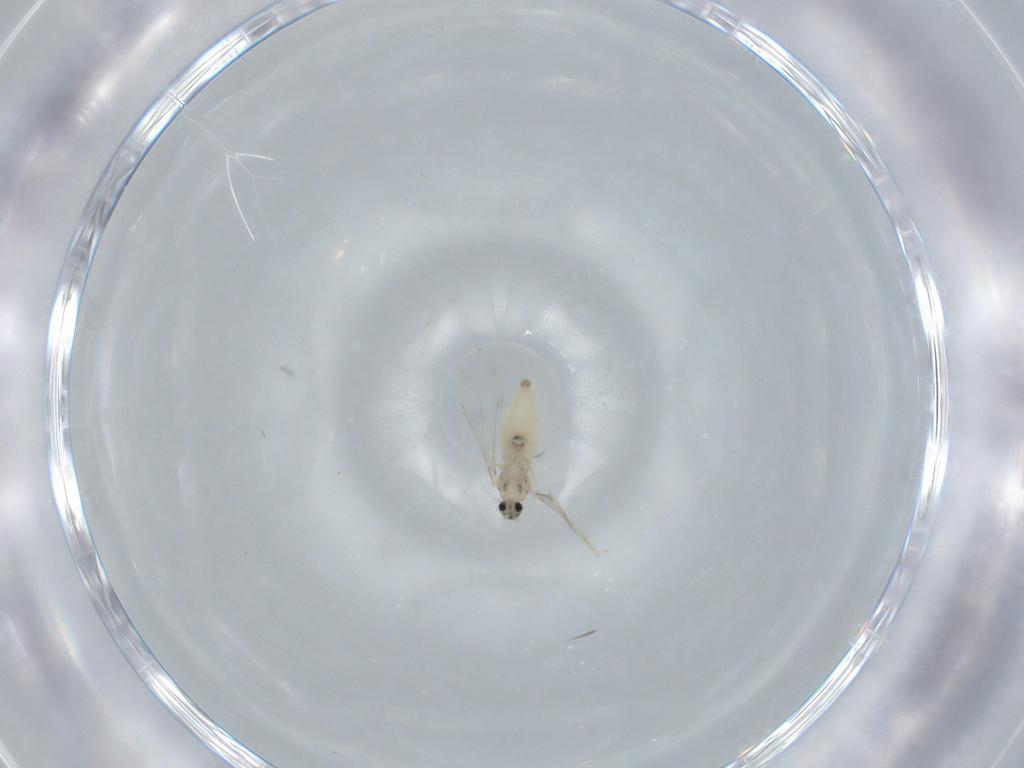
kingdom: Animalia
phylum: Arthropoda
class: Insecta
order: Diptera
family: Cecidomyiidae
